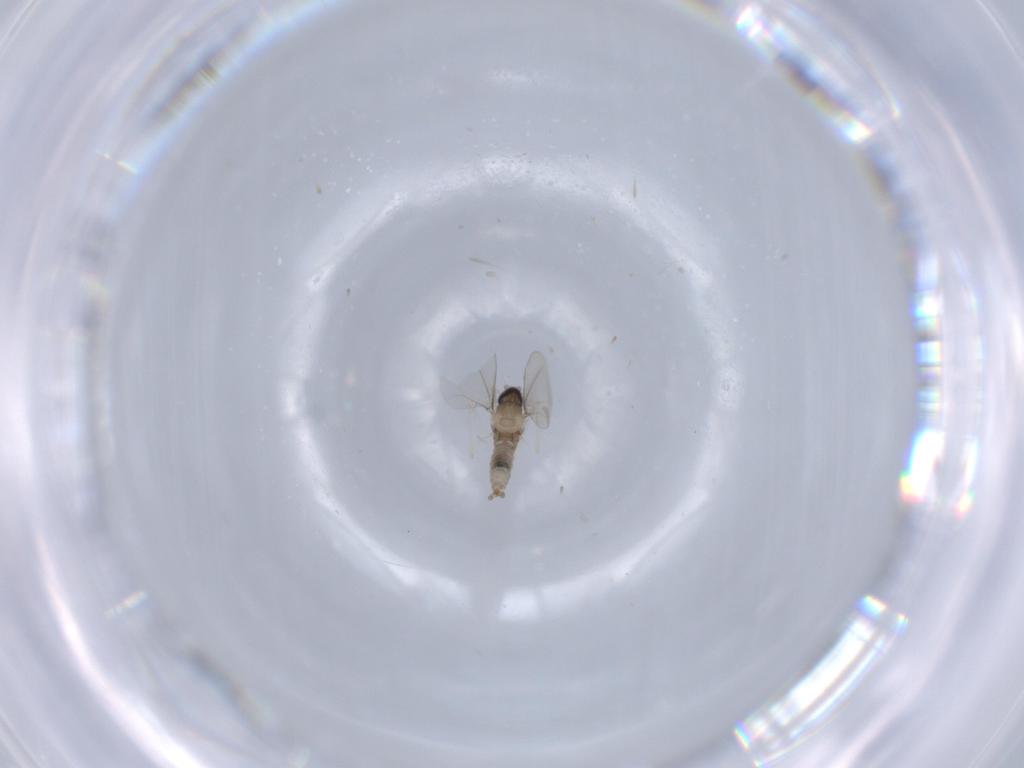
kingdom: Animalia
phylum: Arthropoda
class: Insecta
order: Diptera
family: Cecidomyiidae
